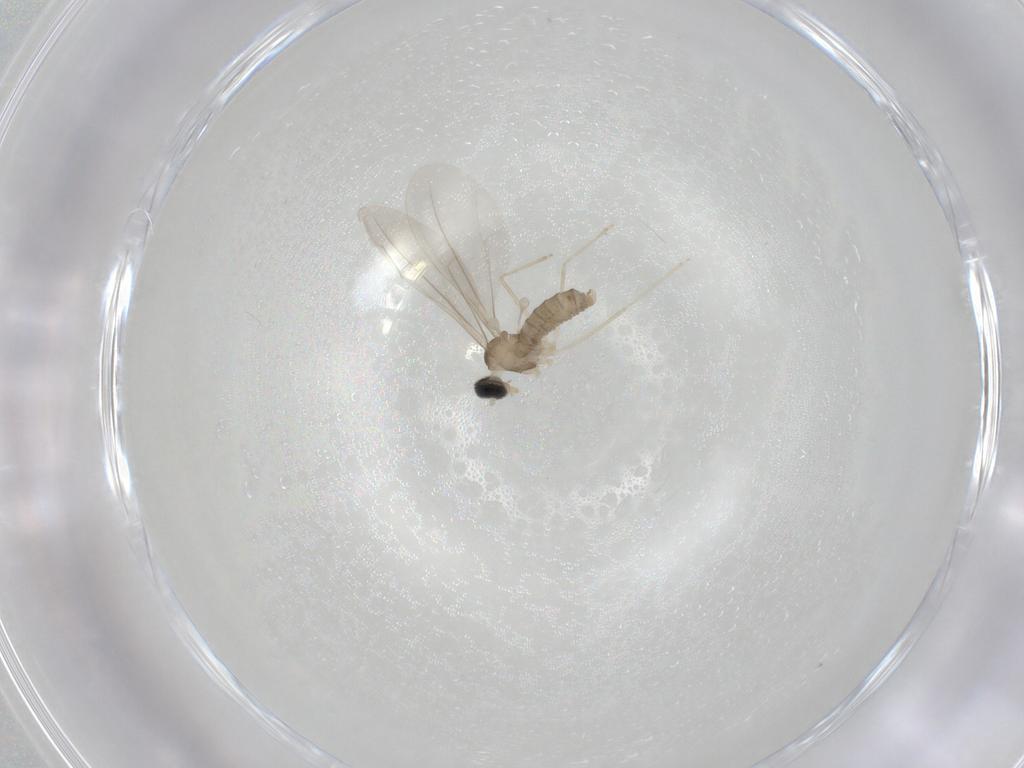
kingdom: Animalia
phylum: Arthropoda
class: Insecta
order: Diptera
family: Cecidomyiidae
